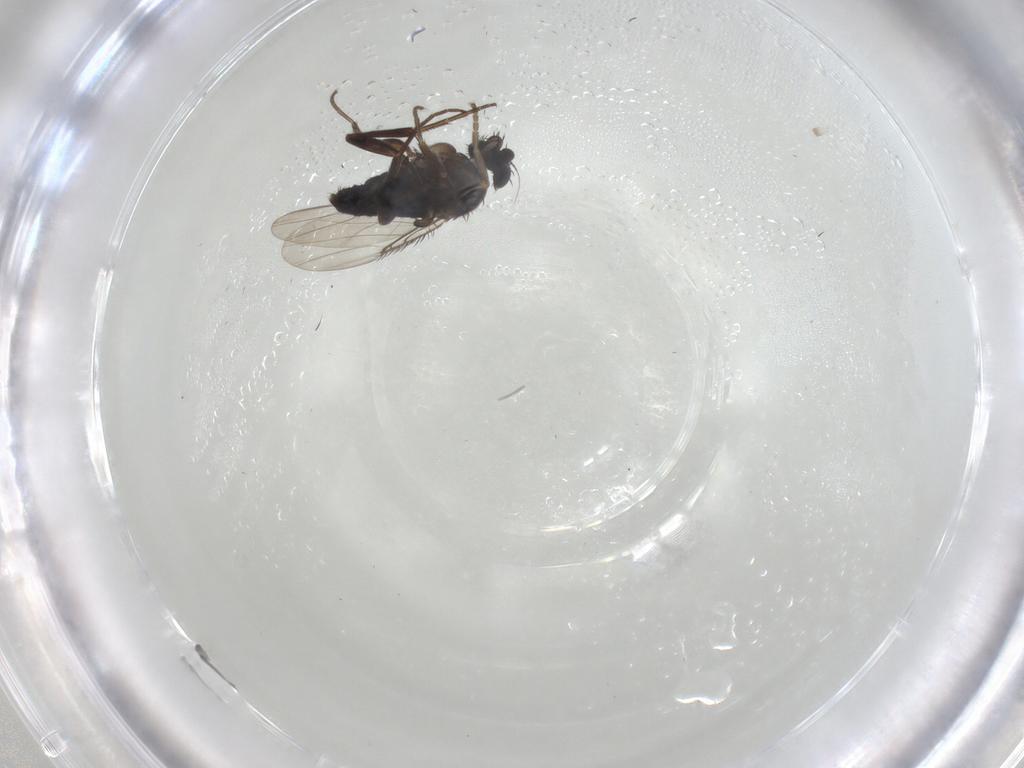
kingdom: Animalia
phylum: Arthropoda
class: Insecta
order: Diptera
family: Phoridae
